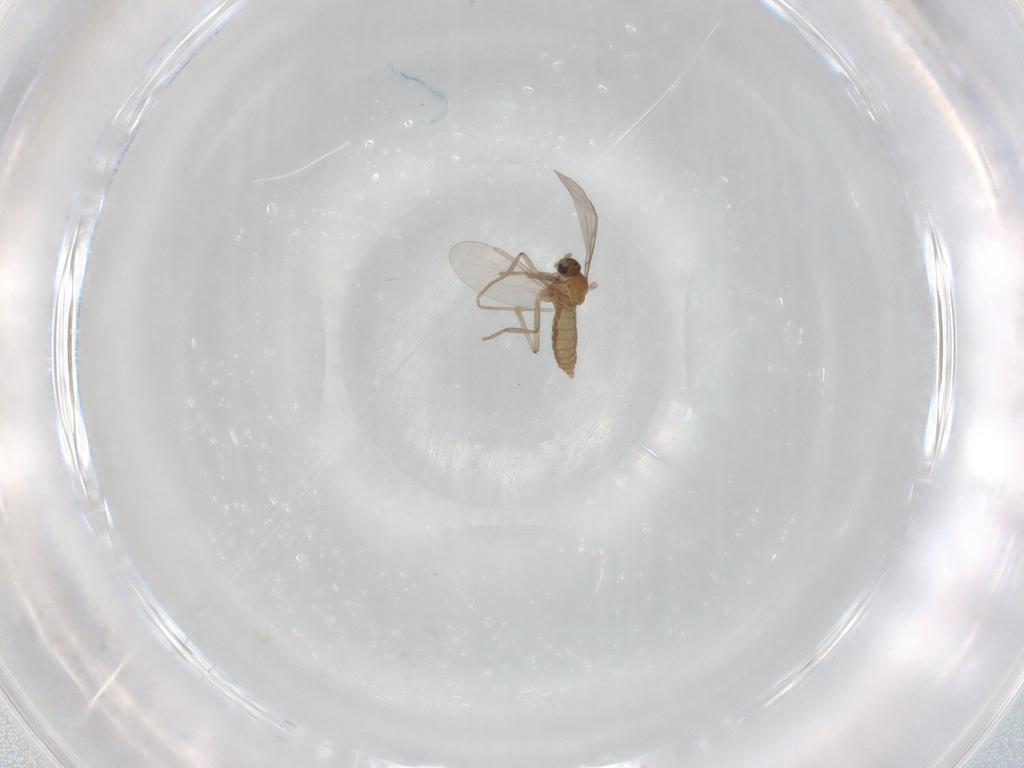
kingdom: Animalia
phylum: Arthropoda
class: Insecta
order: Diptera
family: Cecidomyiidae
